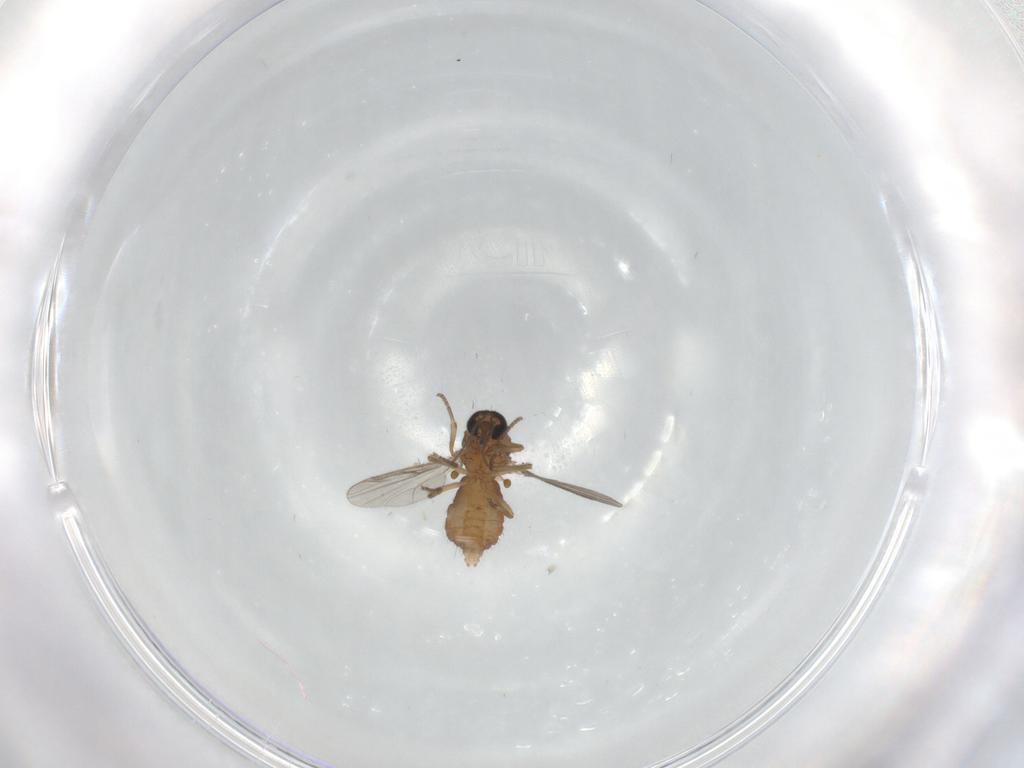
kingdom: Animalia
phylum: Arthropoda
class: Insecta
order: Diptera
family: Ceratopogonidae
